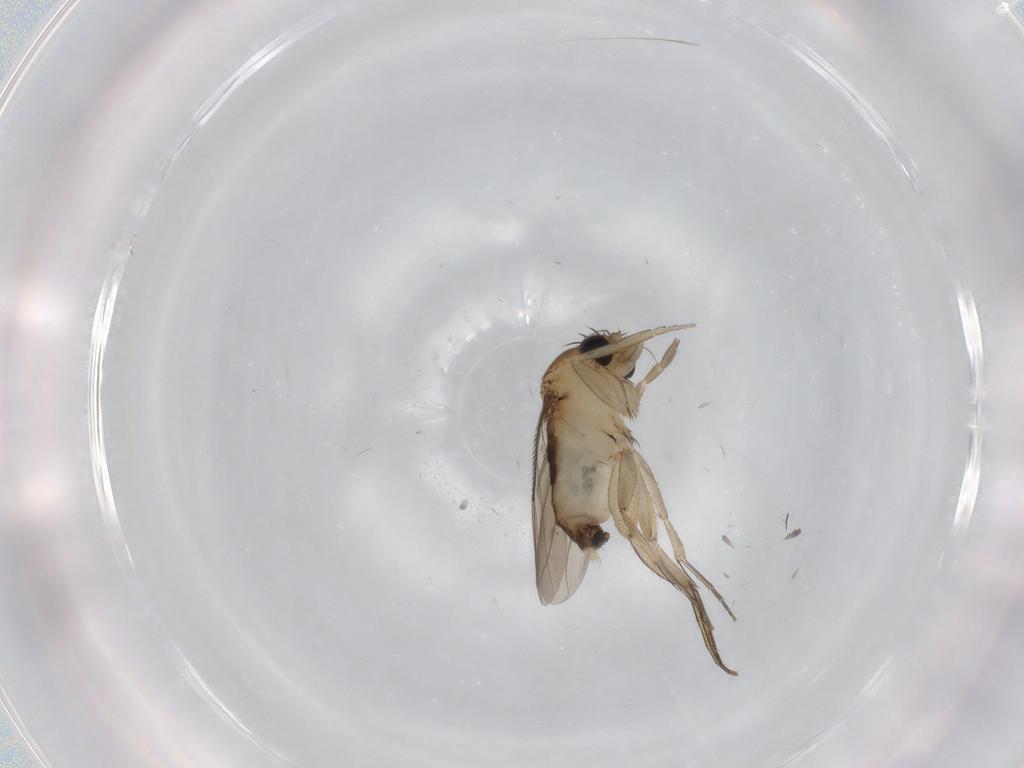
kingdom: Animalia
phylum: Arthropoda
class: Insecta
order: Diptera
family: Phoridae
